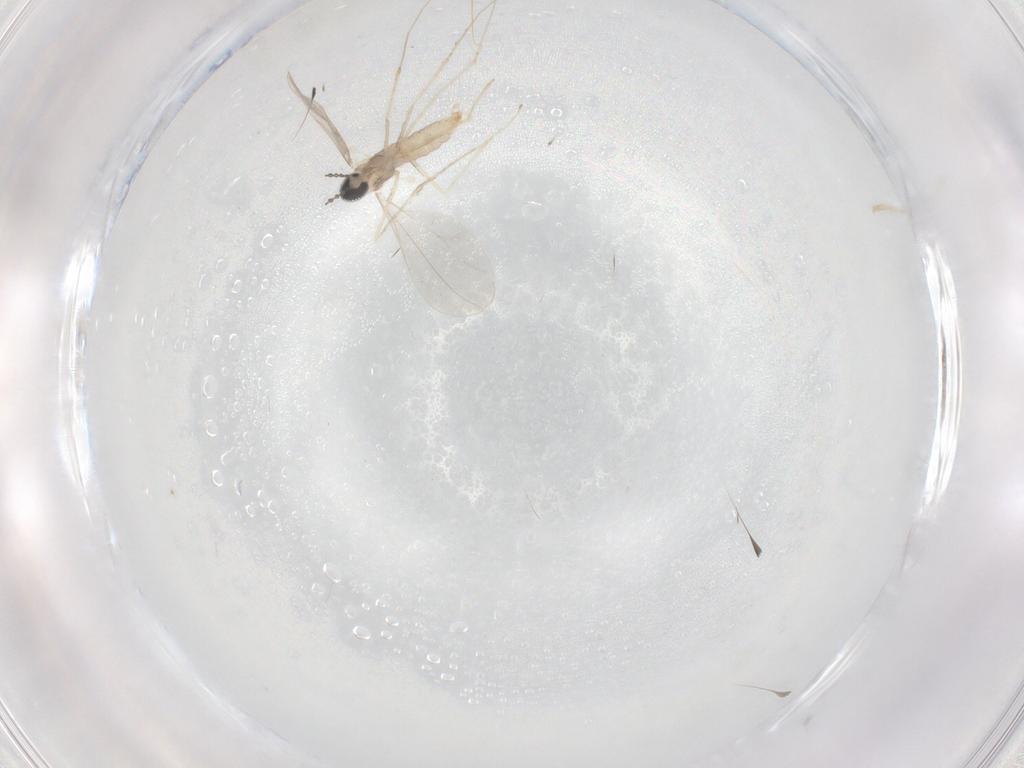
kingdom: Animalia
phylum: Arthropoda
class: Insecta
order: Diptera
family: Cecidomyiidae
